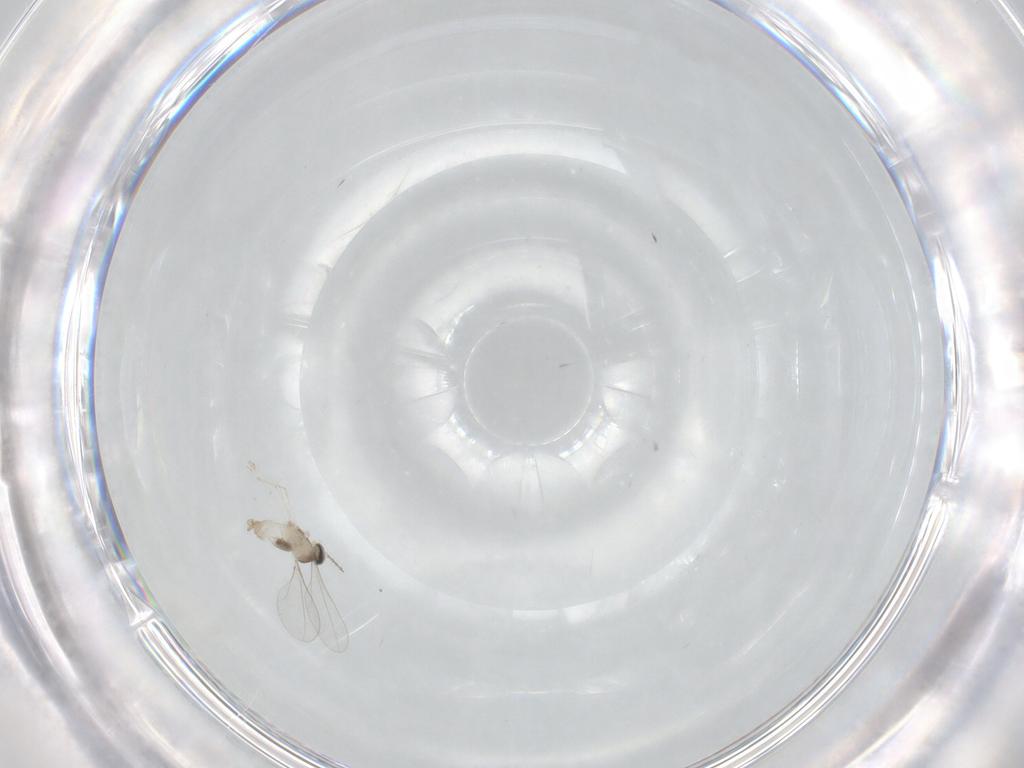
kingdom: Animalia
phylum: Arthropoda
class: Insecta
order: Diptera
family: Cecidomyiidae
